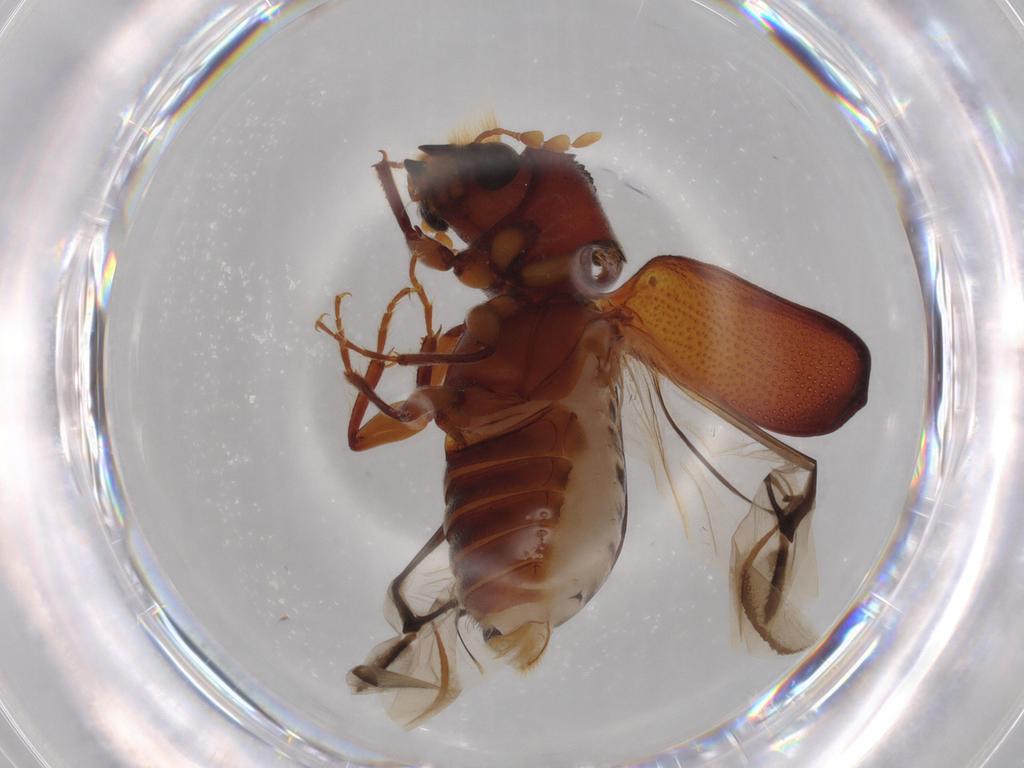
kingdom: Animalia
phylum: Arthropoda
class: Insecta
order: Coleoptera
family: Bostrichidae
